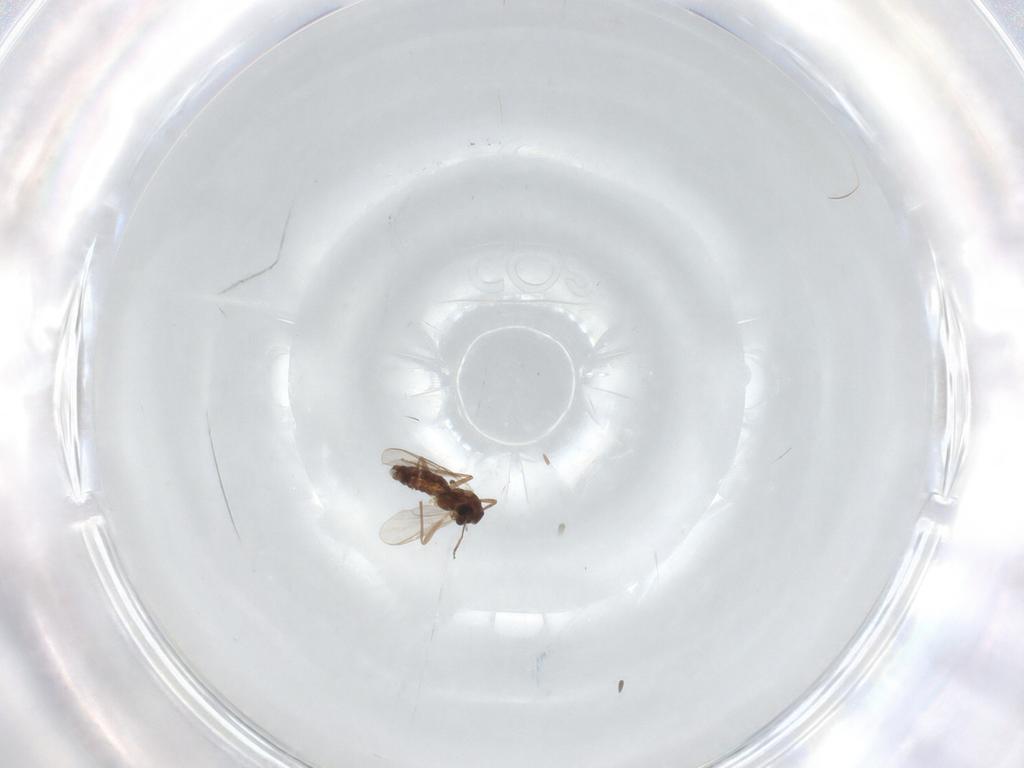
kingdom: Animalia
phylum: Arthropoda
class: Insecta
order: Diptera
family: Chironomidae
